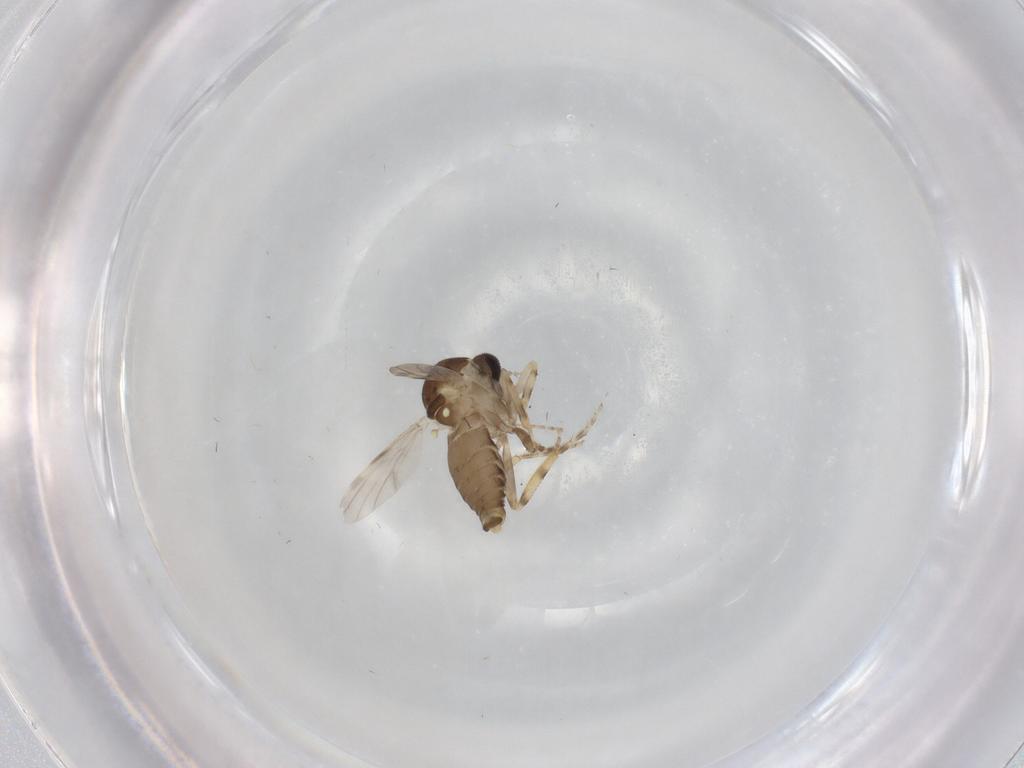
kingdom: Animalia
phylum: Arthropoda
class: Insecta
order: Diptera
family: Ceratopogonidae
